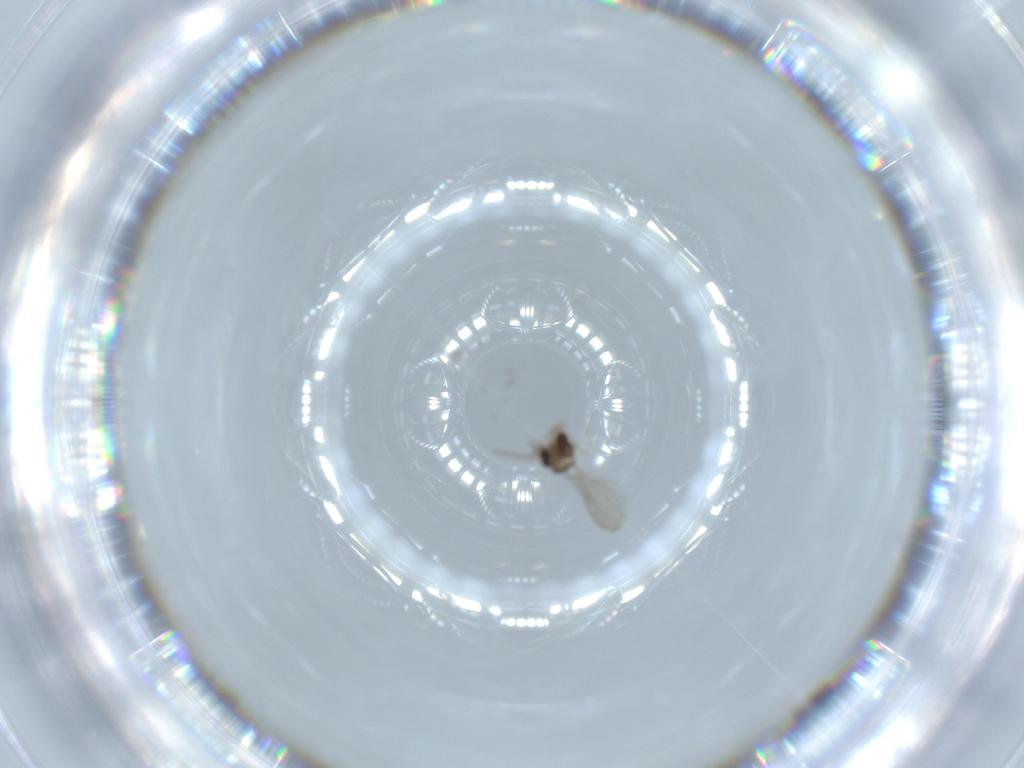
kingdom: Animalia
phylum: Arthropoda
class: Insecta
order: Diptera
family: Cecidomyiidae
